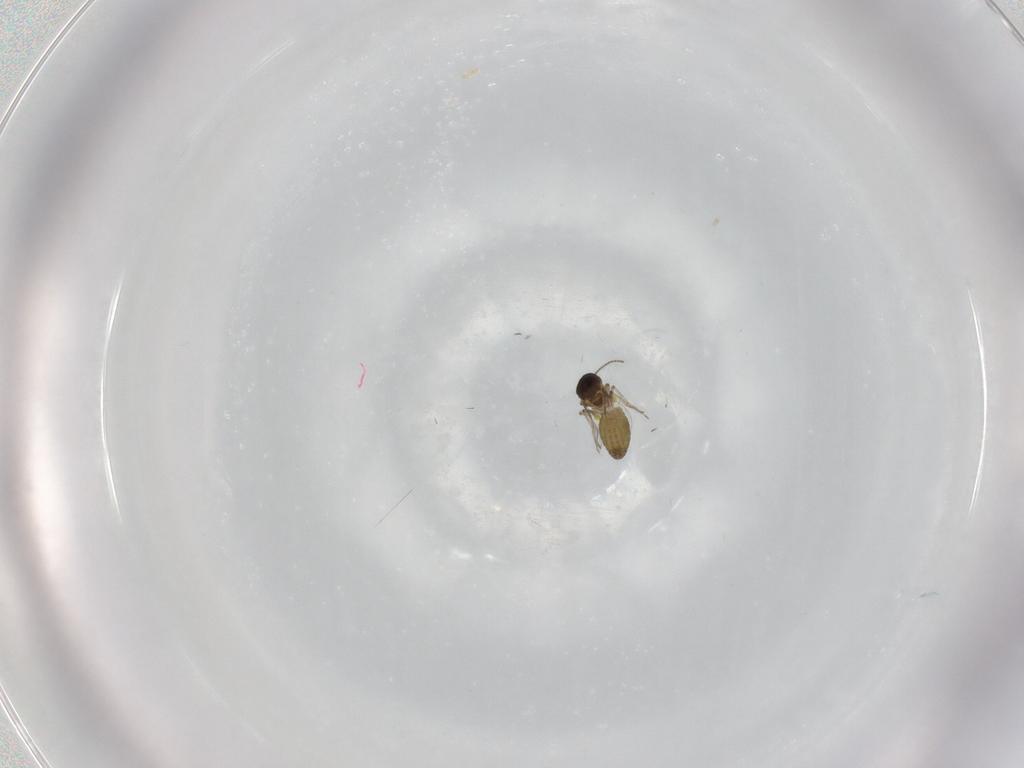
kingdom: Animalia
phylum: Arthropoda
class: Insecta
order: Diptera
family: Ceratopogonidae
